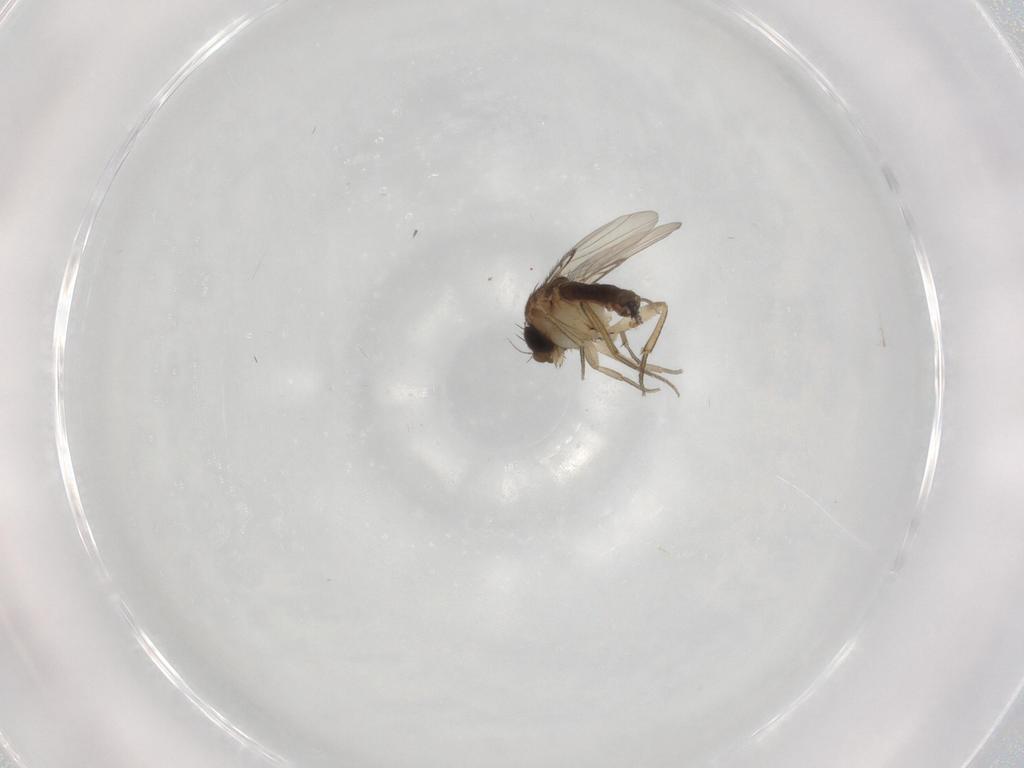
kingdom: Animalia
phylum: Arthropoda
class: Insecta
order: Diptera
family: Phoridae
